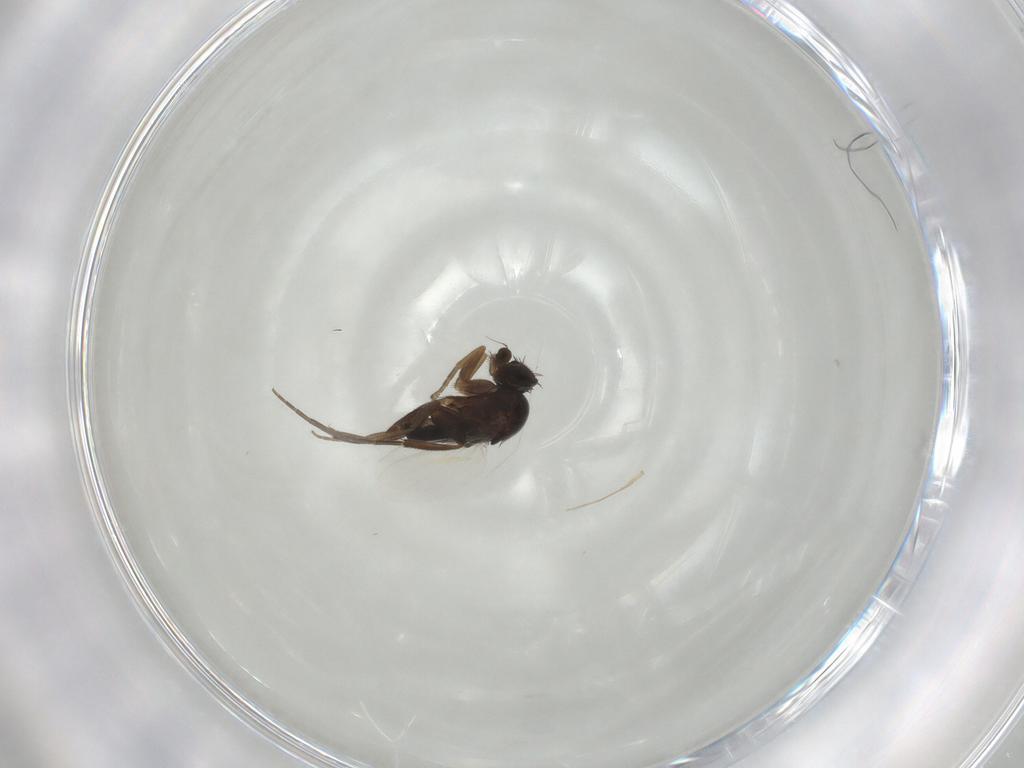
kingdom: Animalia
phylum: Arthropoda
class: Insecta
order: Diptera
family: Phoridae
